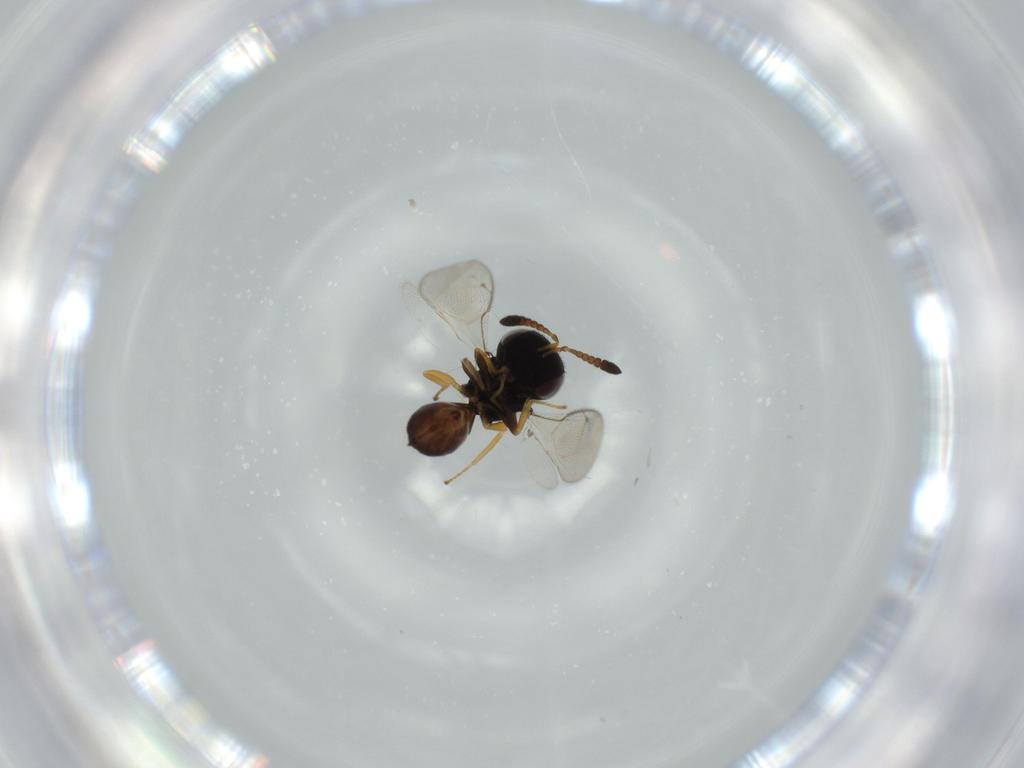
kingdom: Animalia
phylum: Arthropoda
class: Insecta
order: Hymenoptera
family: Pteromalidae
